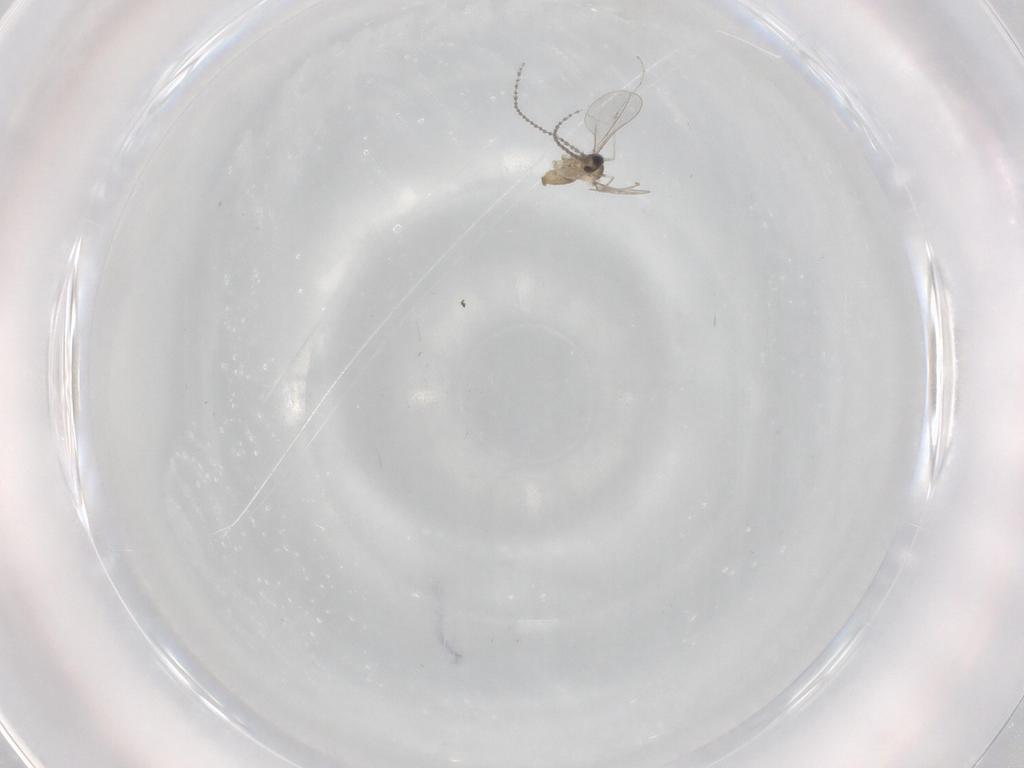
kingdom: Animalia
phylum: Arthropoda
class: Insecta
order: Diptera
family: Cecidomyiidae
